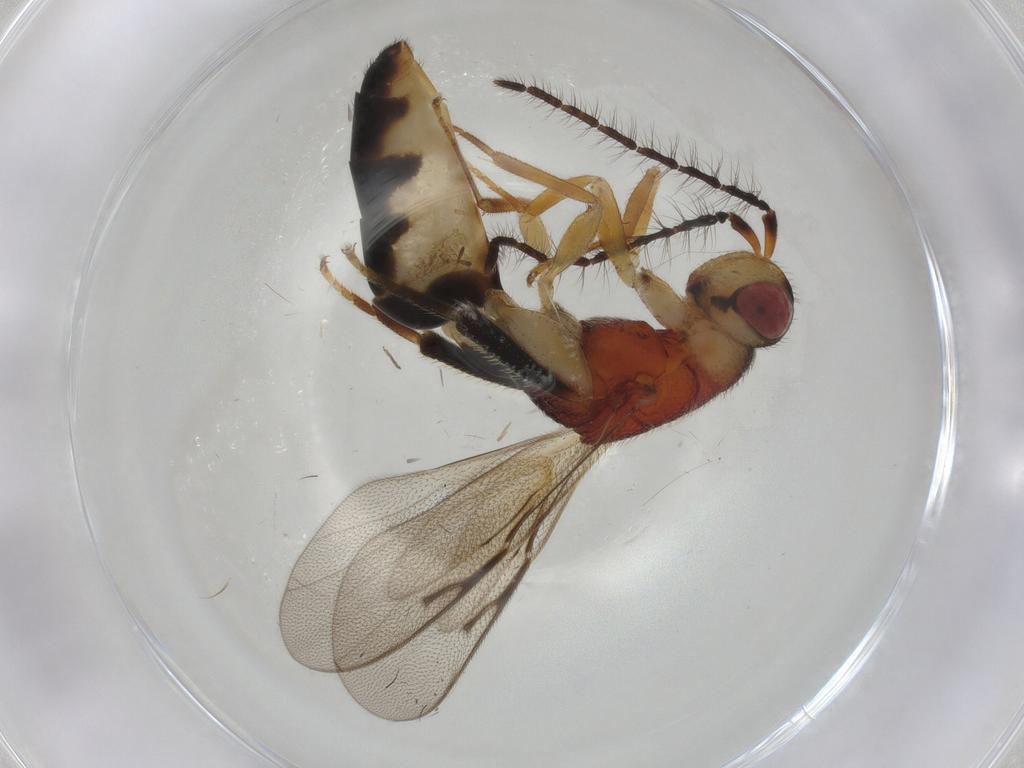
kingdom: Animalia
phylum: Arthropoda
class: Insecta
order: Hymenoptera
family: Eurytomidae
